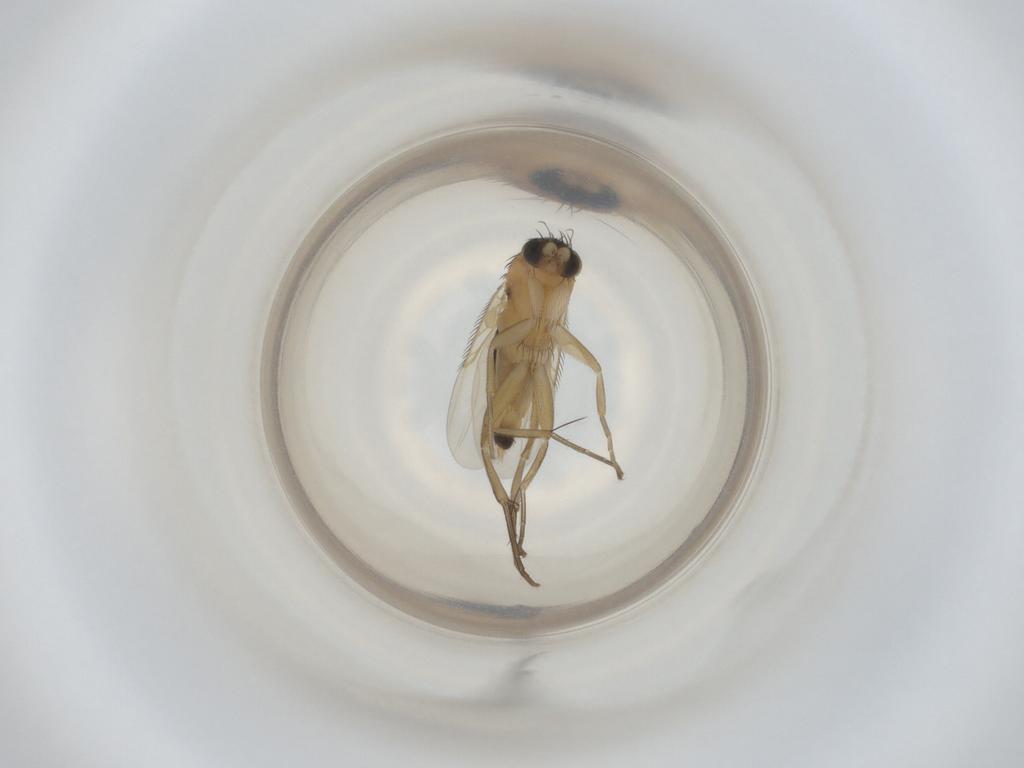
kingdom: Animalia
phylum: Arthropoda
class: Insecta
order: Diptera
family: Phoridae
